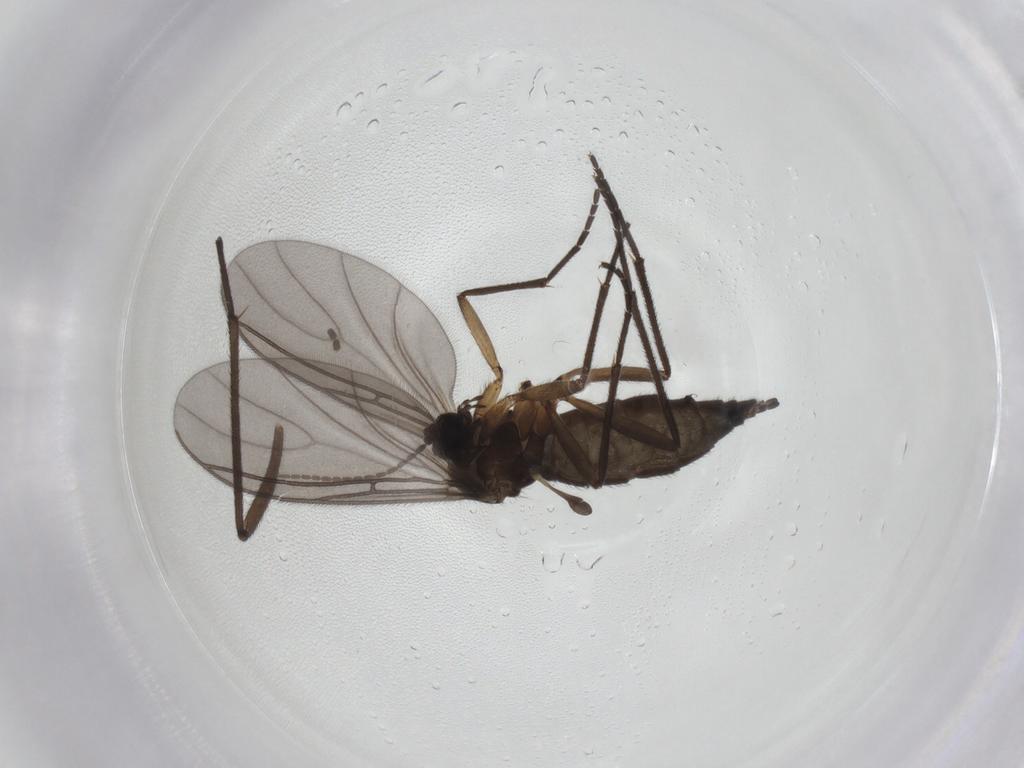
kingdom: Animalia
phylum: Arthropoda
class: Insecta
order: Diptera
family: Sciaridae
